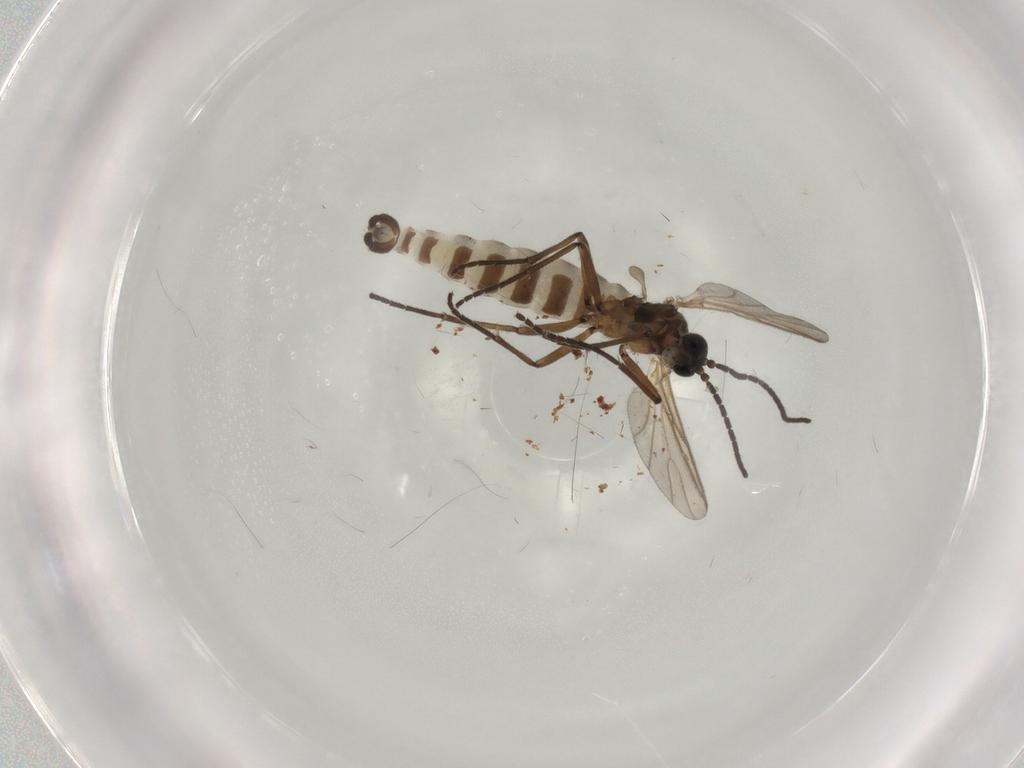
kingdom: Animalia
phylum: Arthropoda
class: Insecta
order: Diptera
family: Sciaridae
